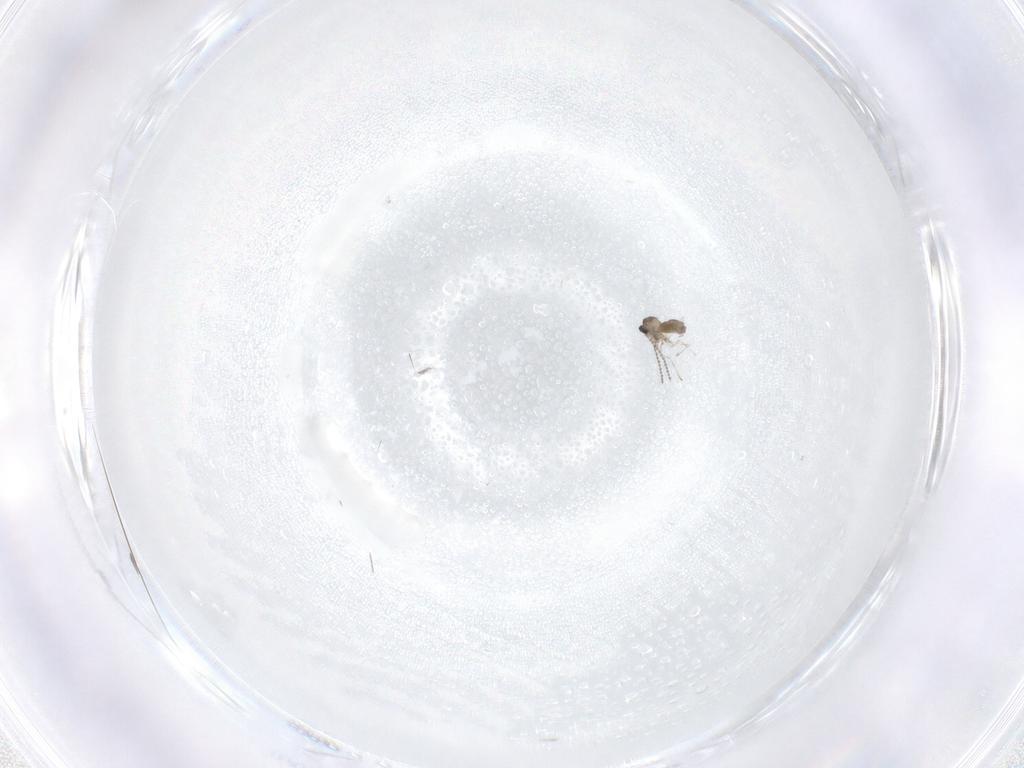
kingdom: Animalia
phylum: Arthropoda
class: Insecta
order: Diptera
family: Cecidomyiidae
